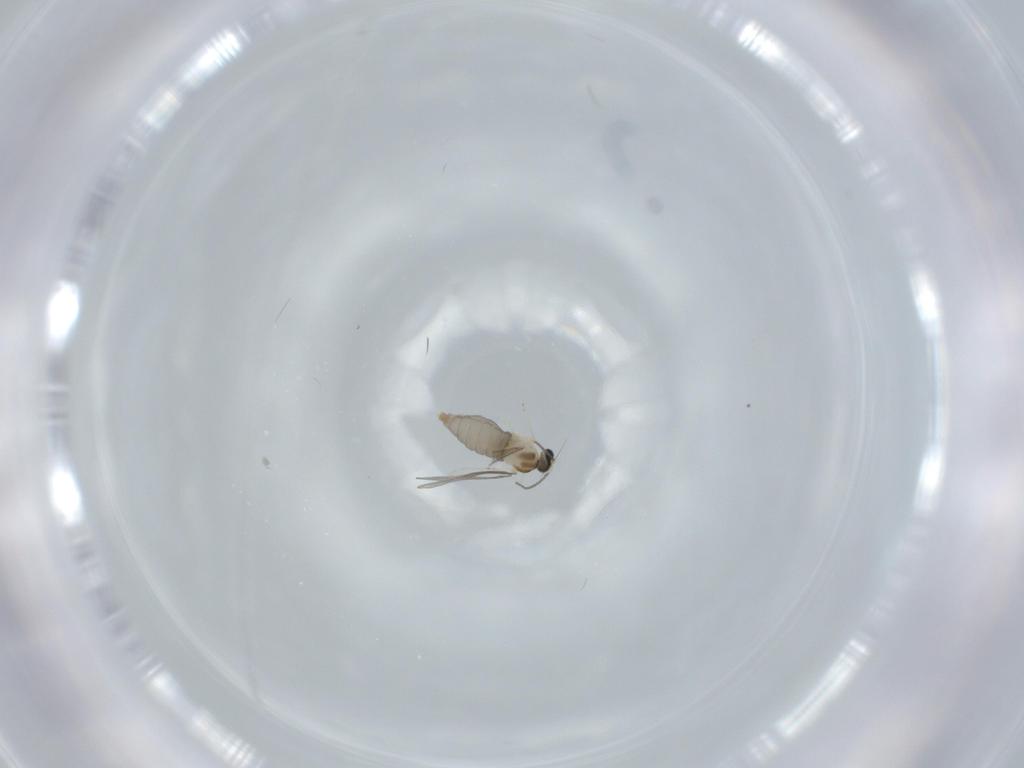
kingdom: Animalia
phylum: Arthropoda
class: Insecta
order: Diptera
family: Cecidomyiidae
